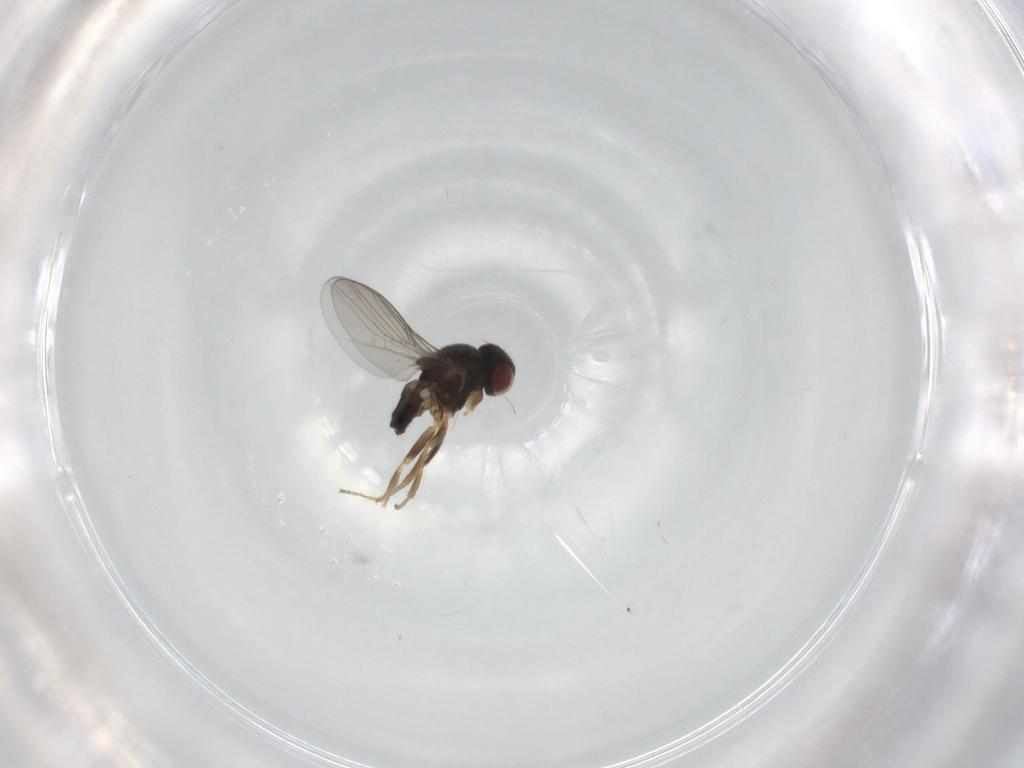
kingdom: Animalia
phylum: Arthropoda
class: Insecta
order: Diptera
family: Chloropidae
